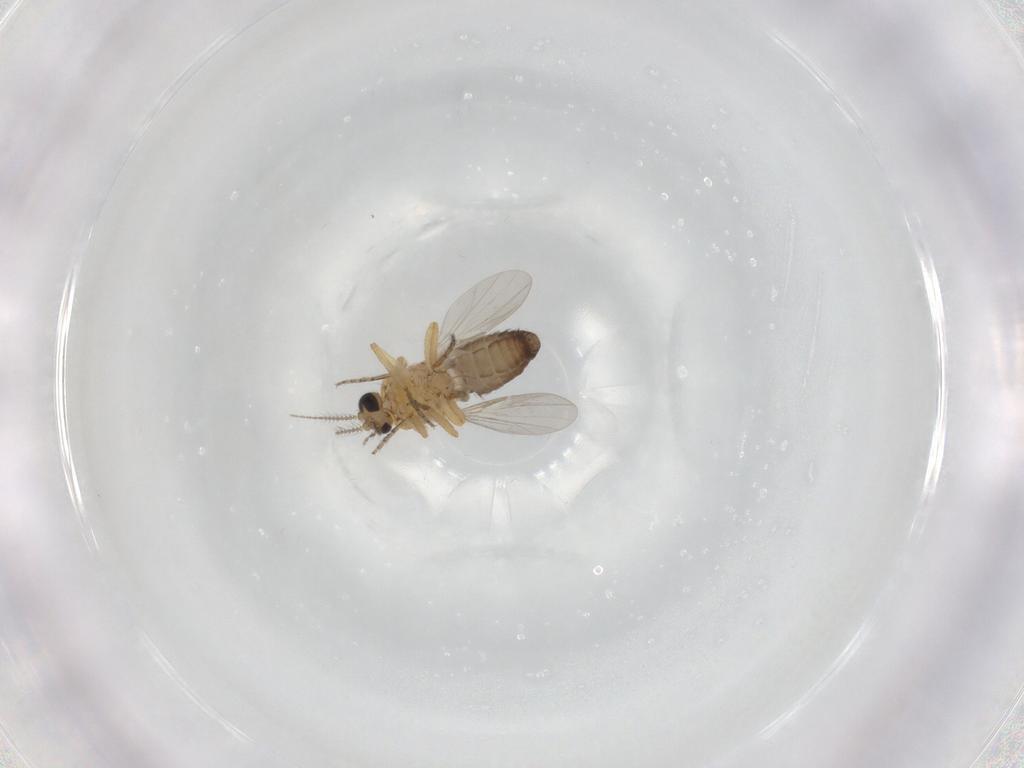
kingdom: Animalia
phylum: Arthropoda
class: Insecta
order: Diptera
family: Ceratopogonidae
